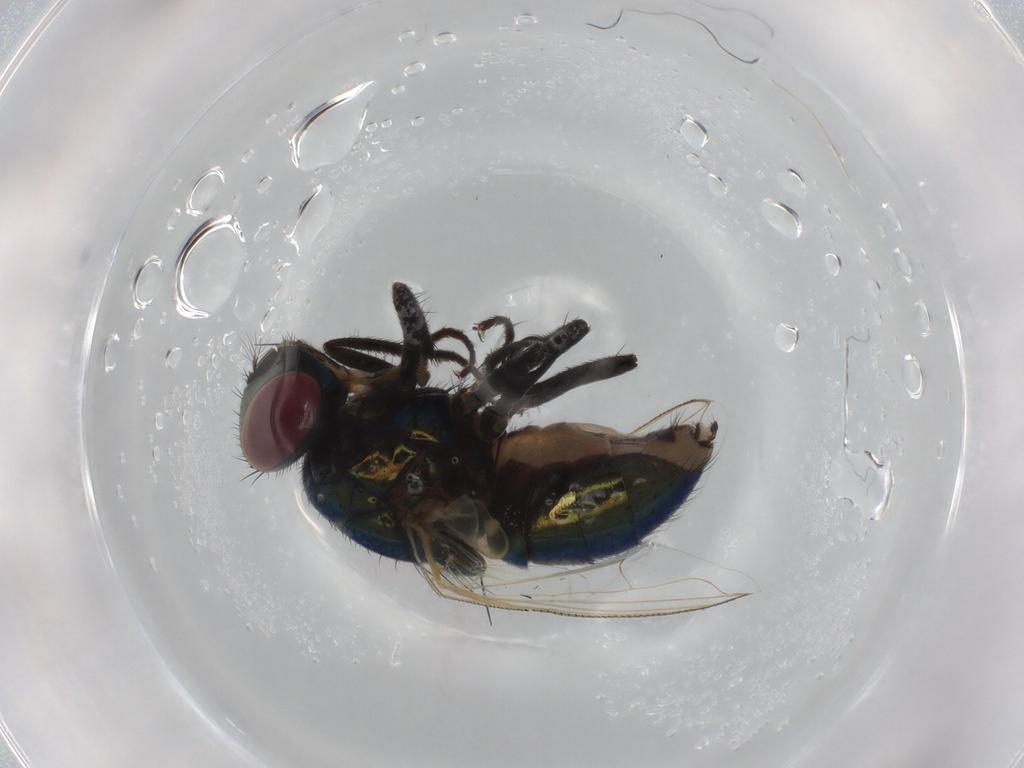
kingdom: Animalia
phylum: Arthropoda
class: Insecta
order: Diptera
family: Muscidae
